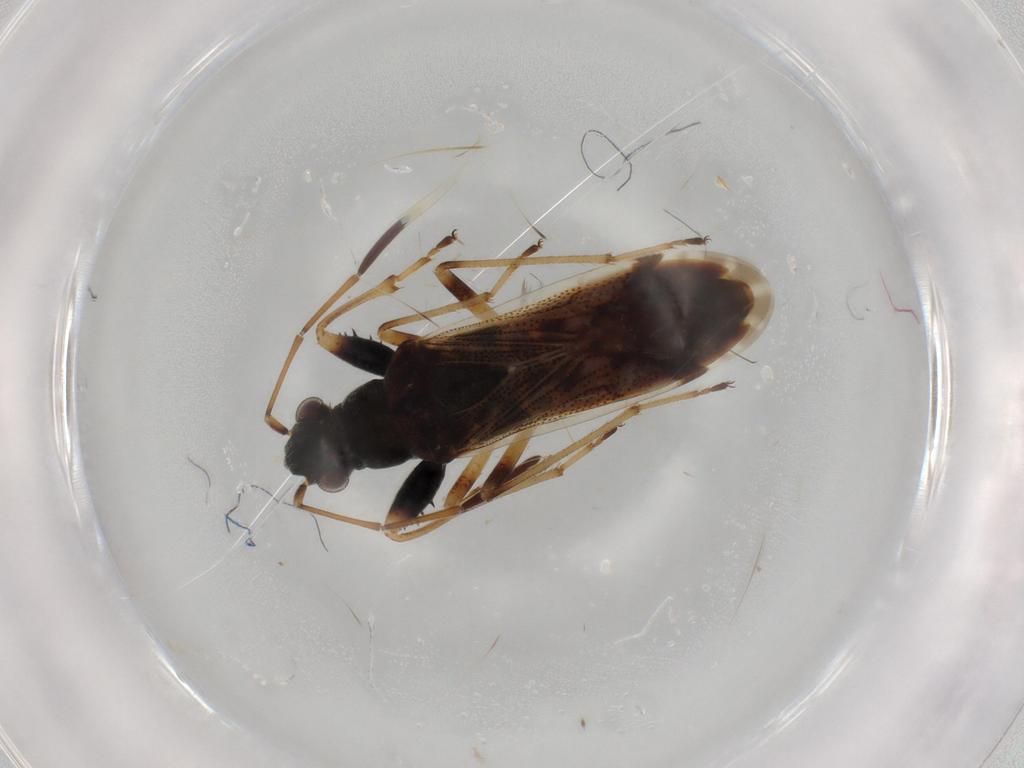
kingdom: Animalia
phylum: Arthropoda
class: Insecta
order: Hemiptera
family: Rhyparochromidae
